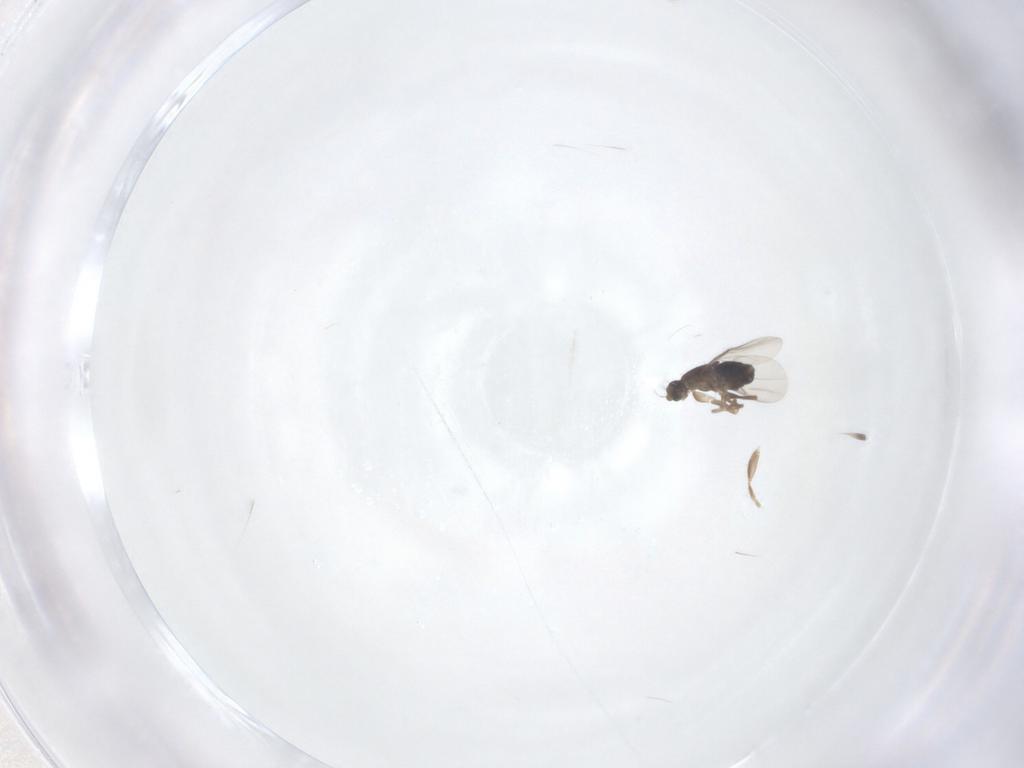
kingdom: Animalia
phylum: Arthropoda
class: Insecta
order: Diptera
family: Phoridae
